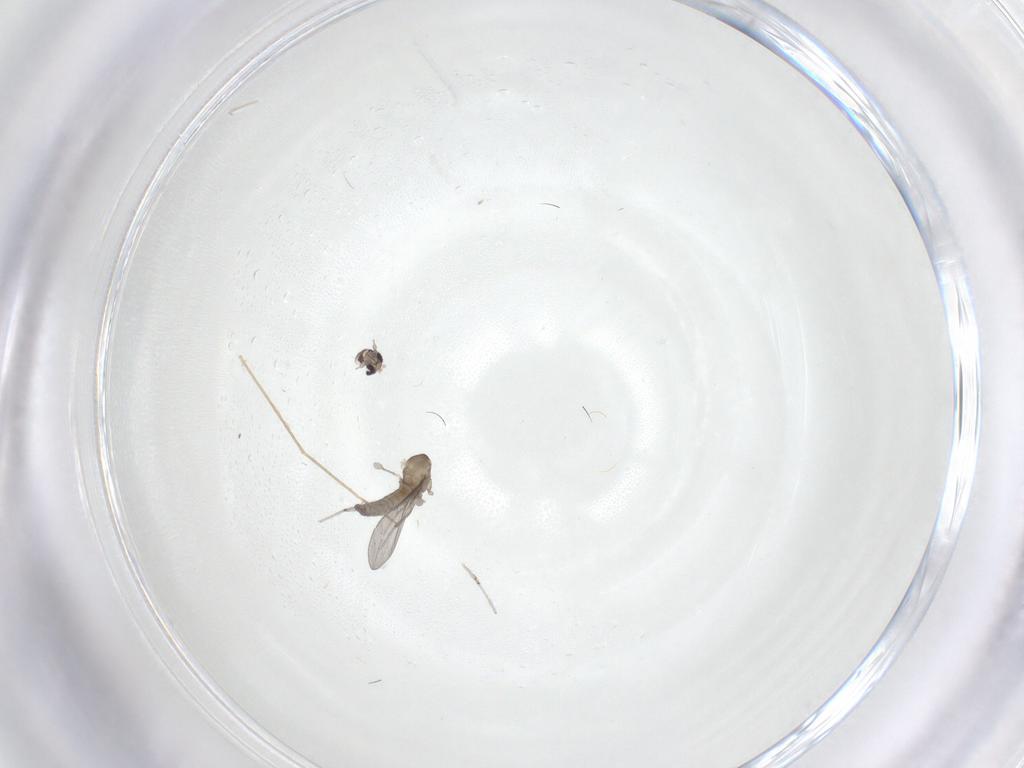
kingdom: Animalia
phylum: Arthropoda
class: Insecta
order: Diptera
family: Cecidomyiidae
